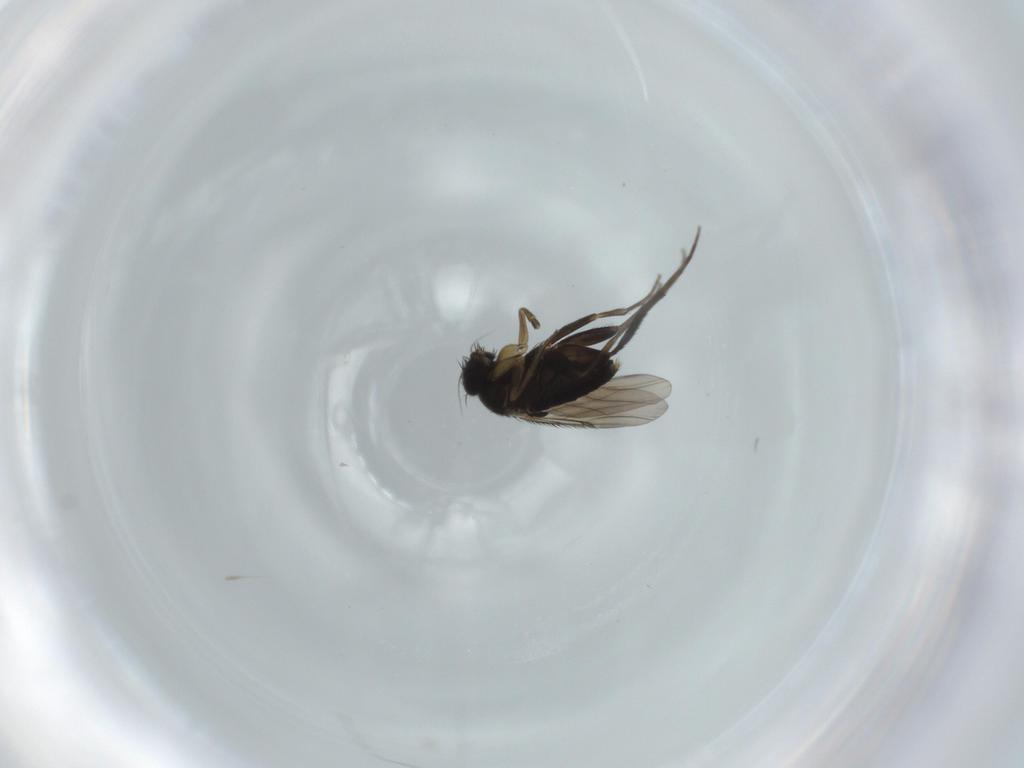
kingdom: Animalia
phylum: Arthropoda
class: Insecta
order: Diptera
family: Phoridae
